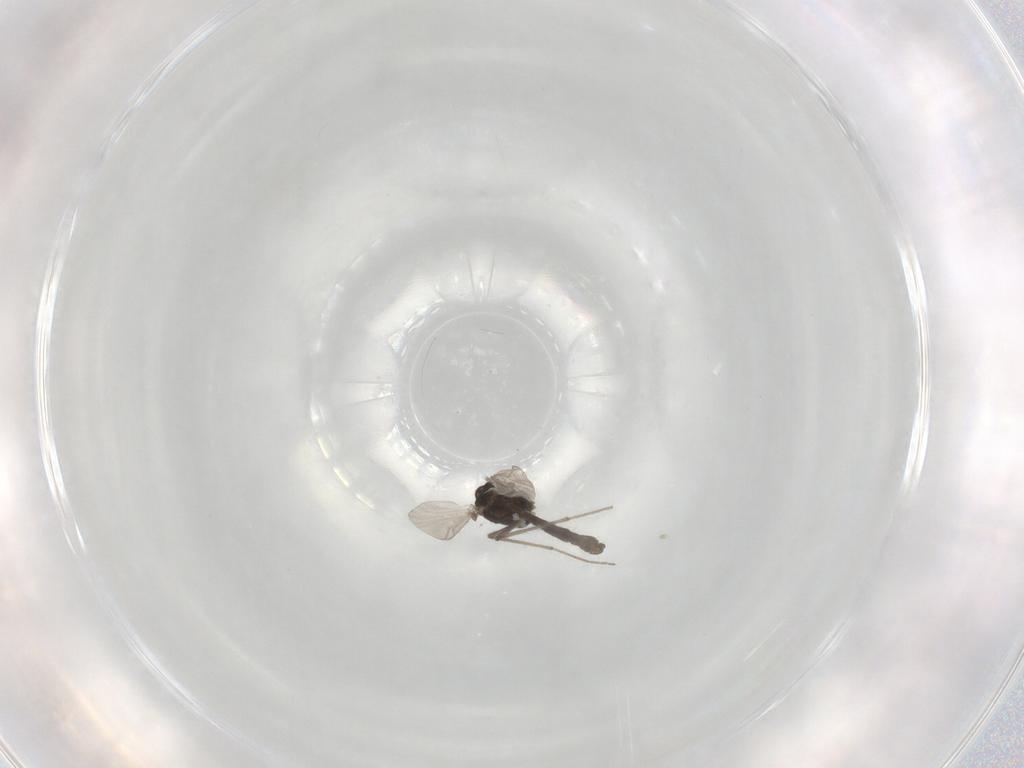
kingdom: Animalia
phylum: Arthropoda
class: Insecta
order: Diptera
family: Chironomidae
